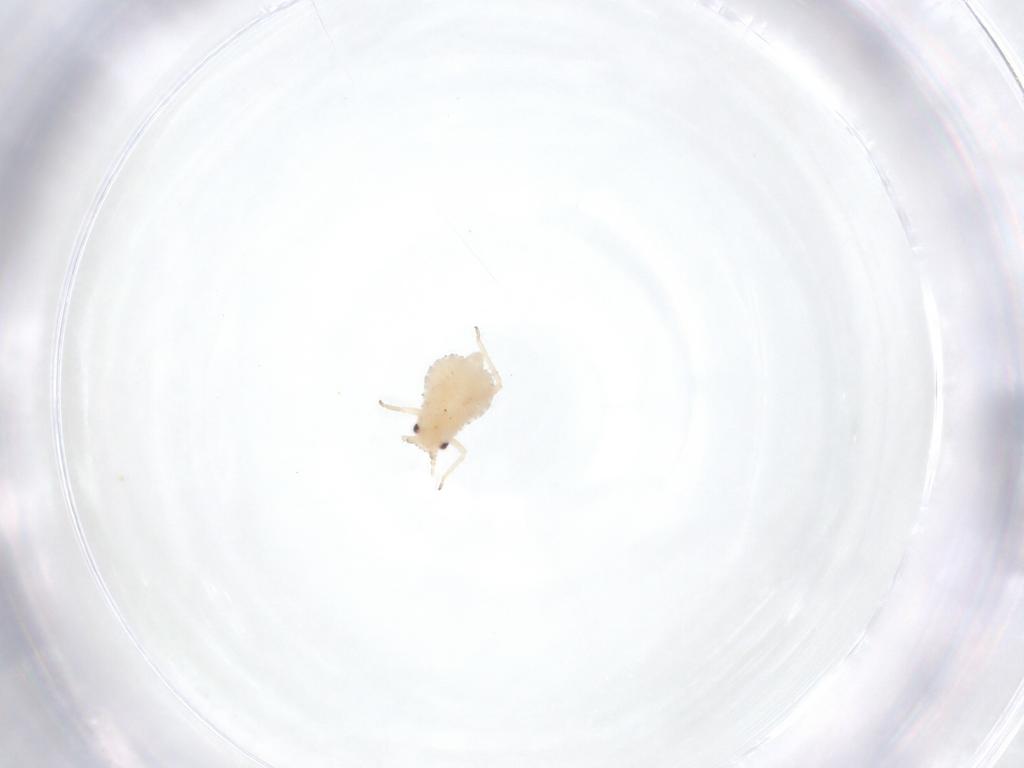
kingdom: Animalia
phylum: Arthropoda
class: Insecta
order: Hemiptera
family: Aphididae
